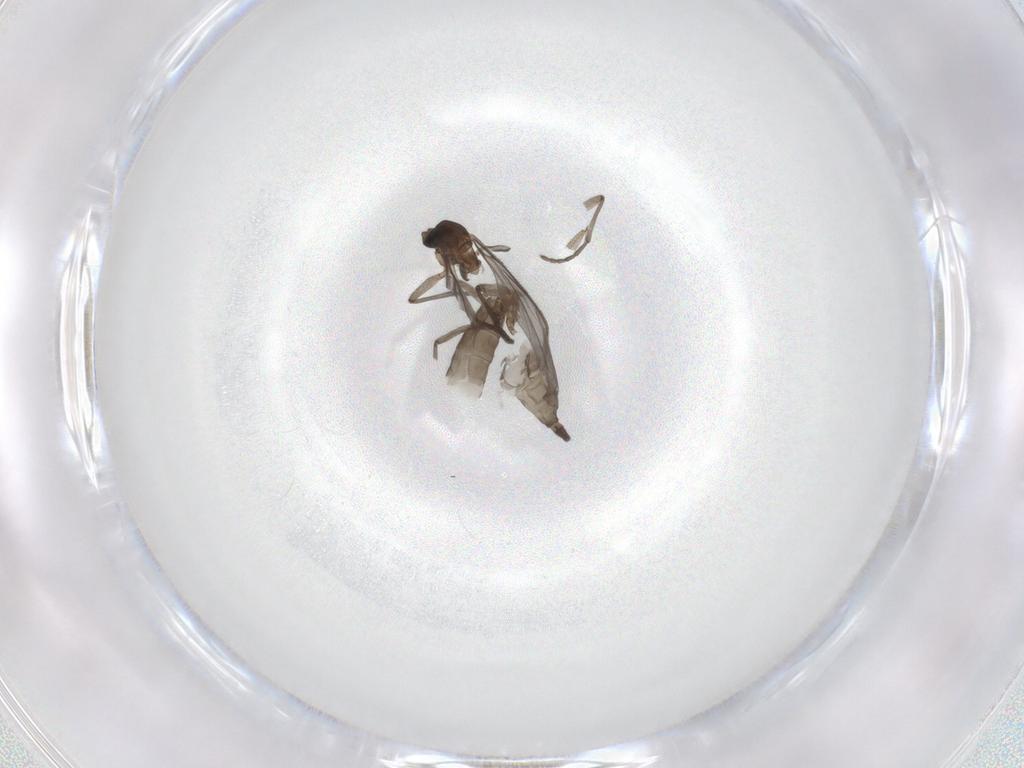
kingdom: Animalia
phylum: Arthropoda
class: Insecta
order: Diptera
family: Sciaridae
